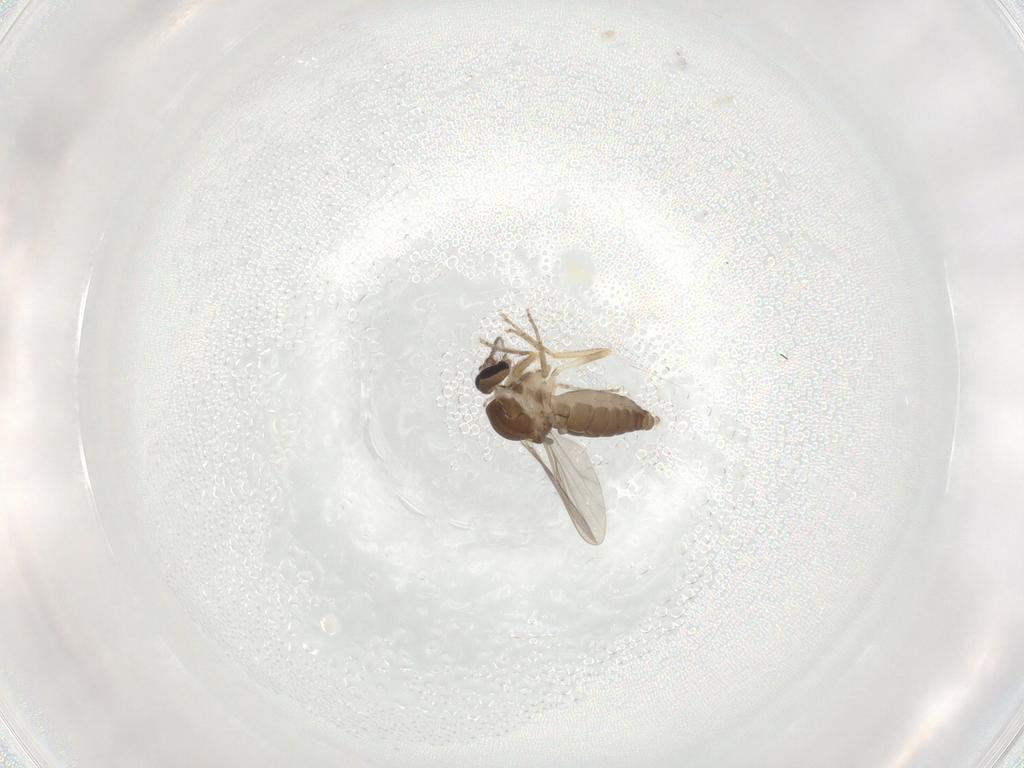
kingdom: Animalia
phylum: Arthropoda
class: Insecta
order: Diptera
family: Ceratopogonidae
